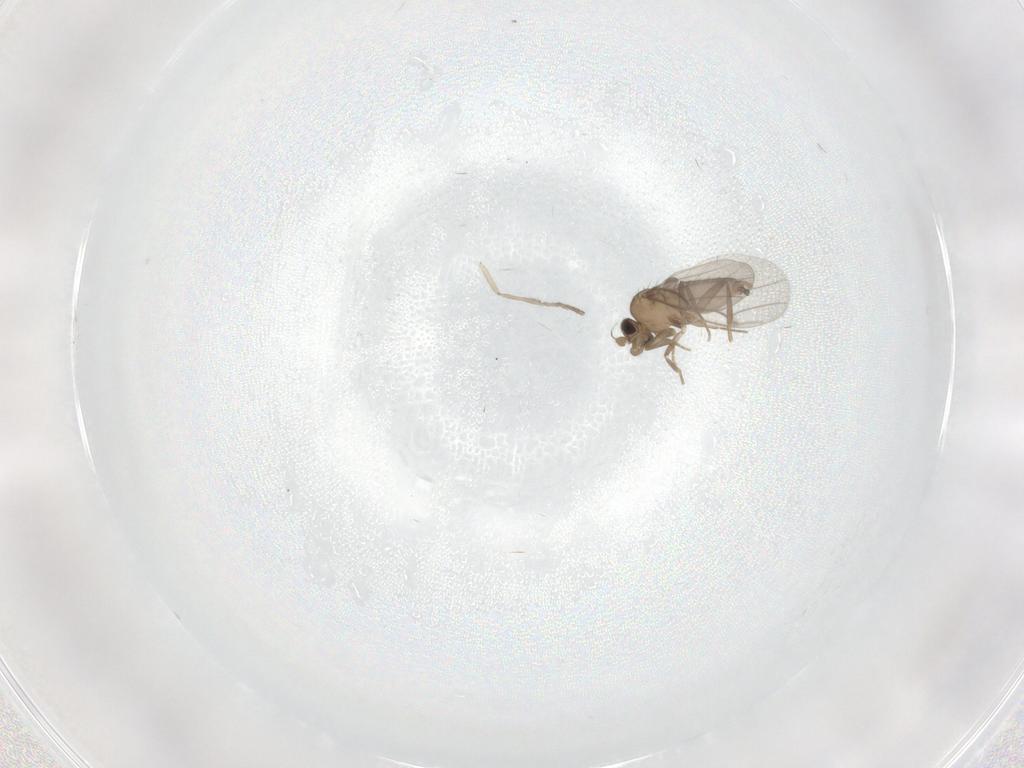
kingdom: Animalia
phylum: Arthropoda
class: Insecta
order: Diptera
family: Psychodidae
